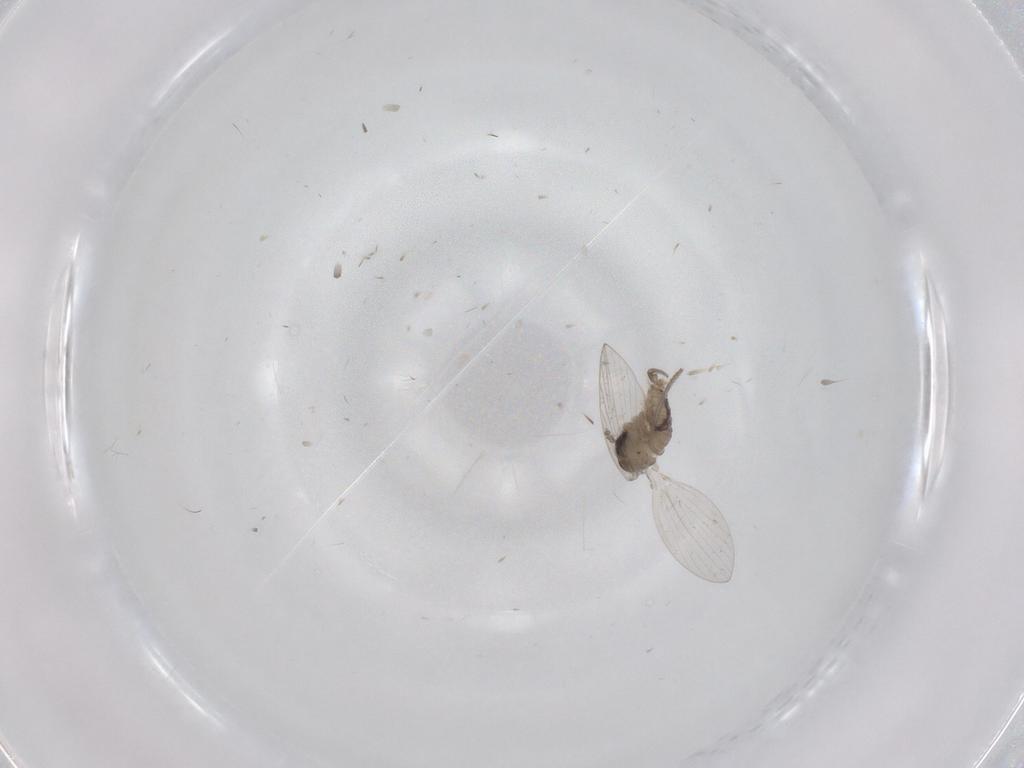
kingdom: Animalia
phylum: Arthropoda
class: Insecta
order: Diptera
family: Psychodidae
